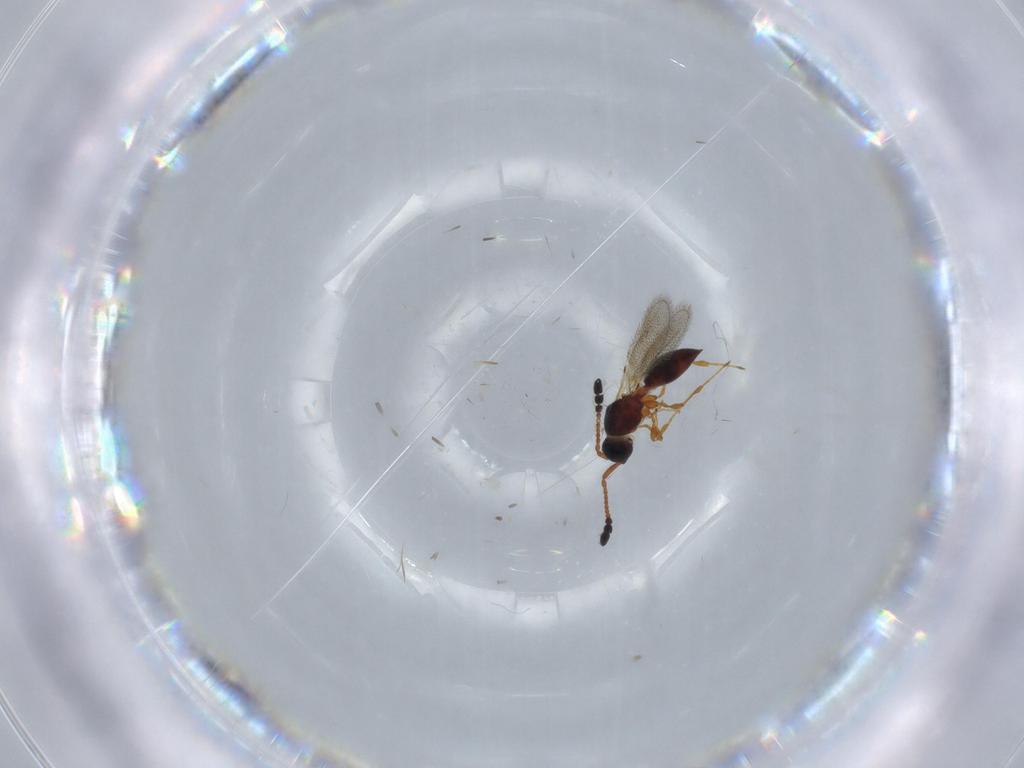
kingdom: Animalia
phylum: Arthropoda
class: Insecta
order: Hymenoptera
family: Diapriidae
